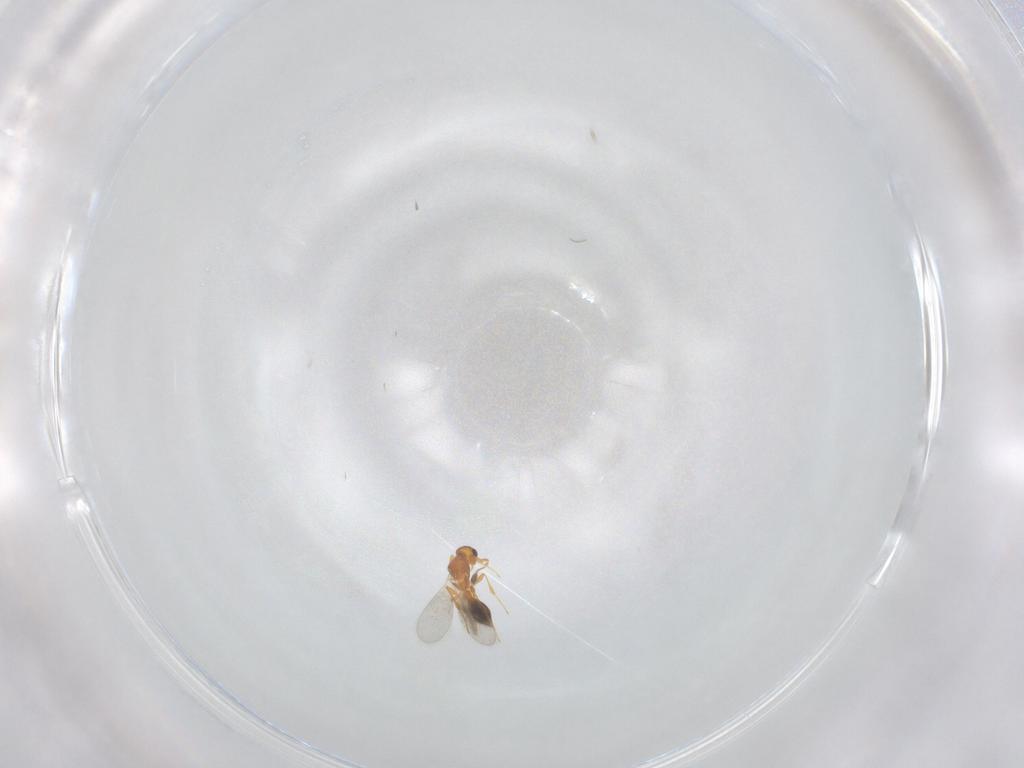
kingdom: Animalia
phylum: Arthropoda
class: Insecta
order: Hymenoptera
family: Platygastridae
